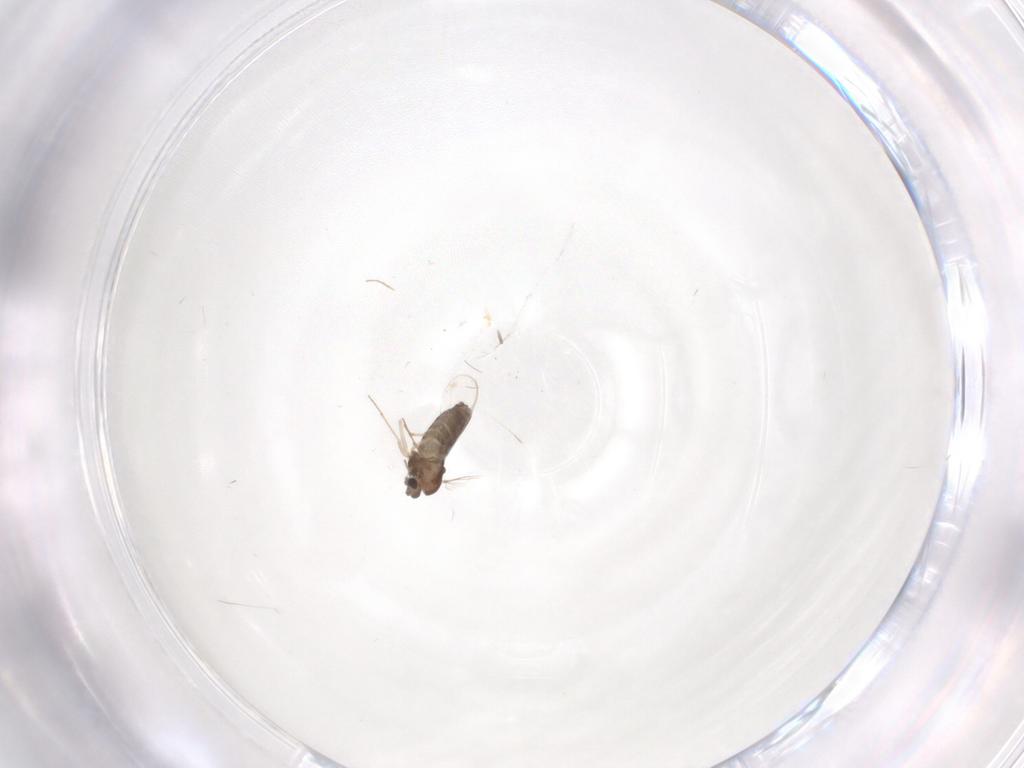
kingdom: Animalia
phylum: Arthropoda
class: Insecta
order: Diptera
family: Chironomidae
